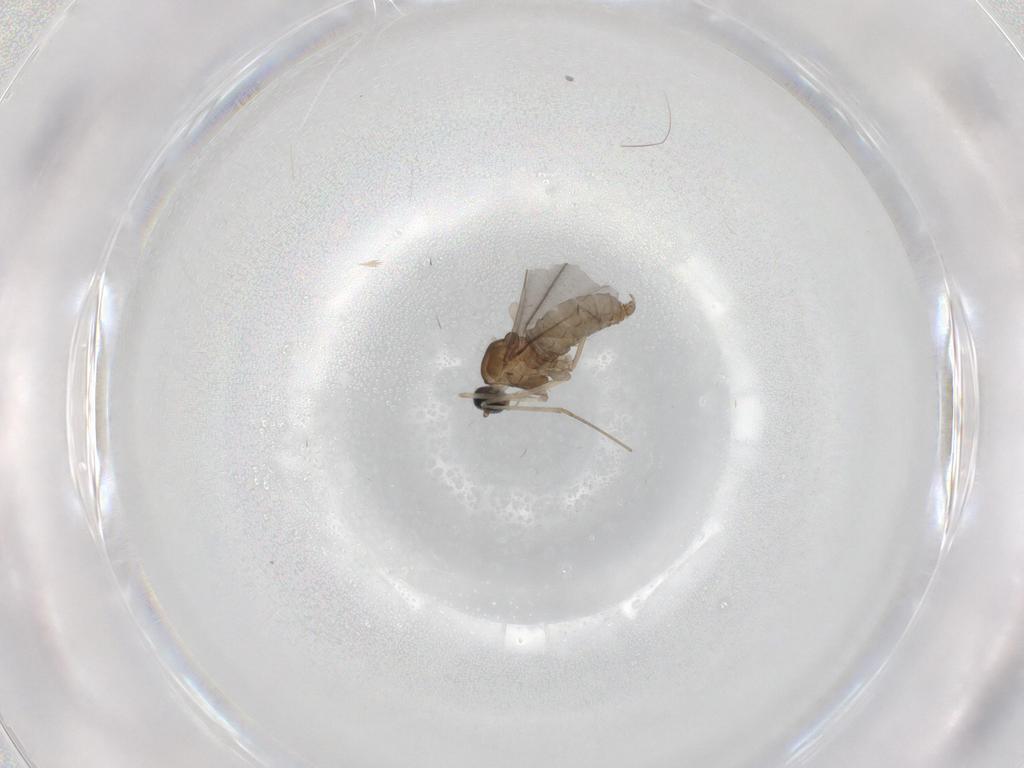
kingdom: Animalia
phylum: Arthropoda
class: Insecta
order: Diptera
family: Cecidomyiidae
